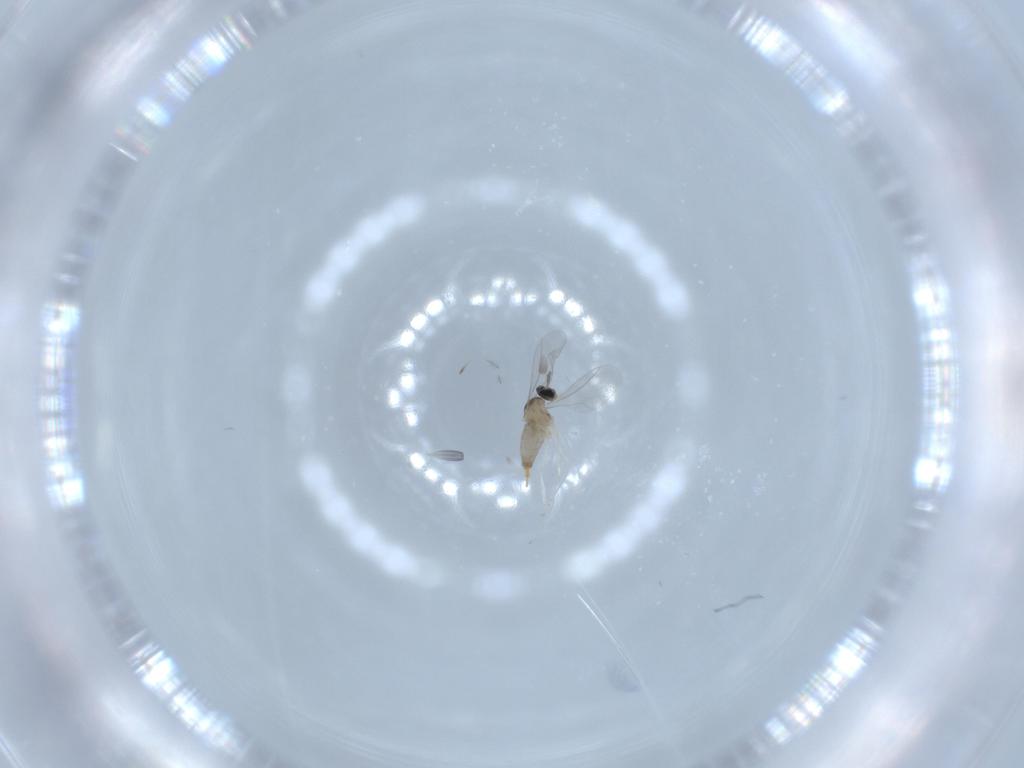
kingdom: Animalia
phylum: Arthropoda
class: Insecta
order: Diptera
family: Cecidomyiidae
